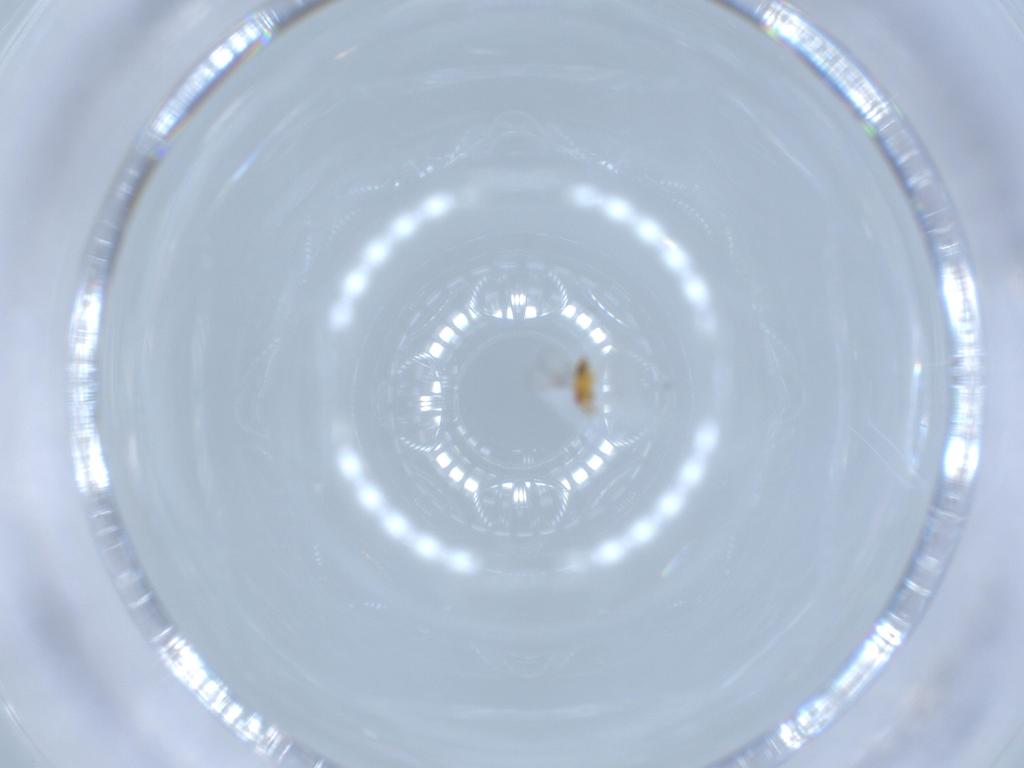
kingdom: Animalia
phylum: Arthropoda
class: Insecta
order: Hymenoptera
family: Trichogrammatidae
